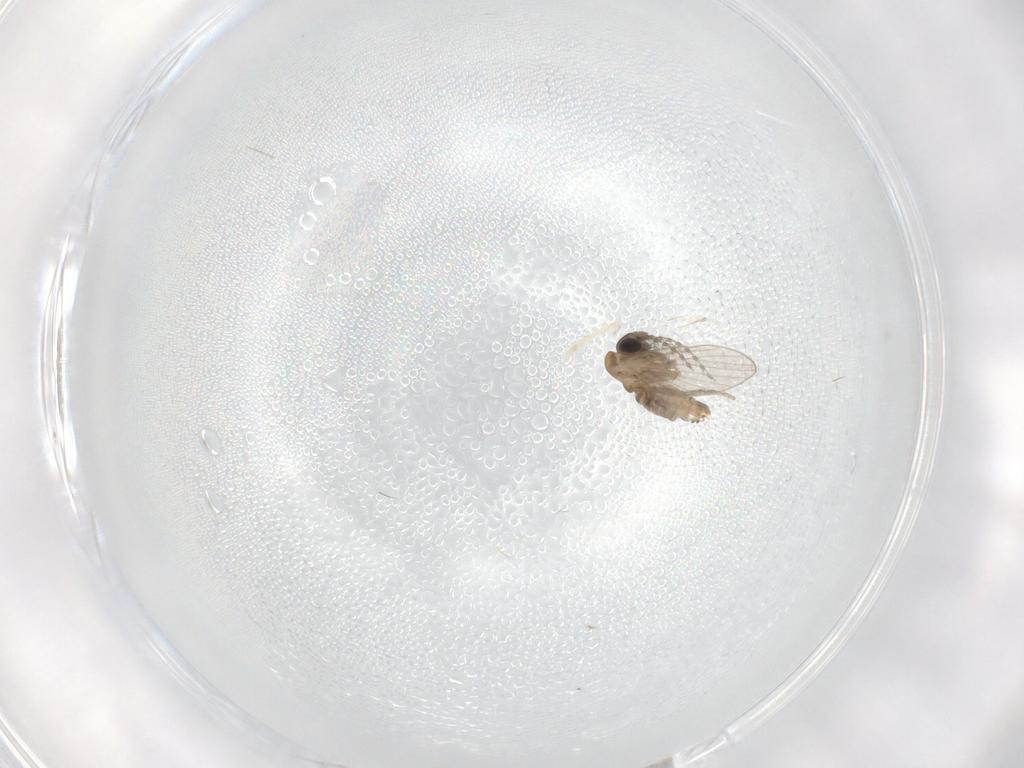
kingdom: Animalia
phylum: Arthropoda
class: Insecta
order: Diptera
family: Psychodidae
